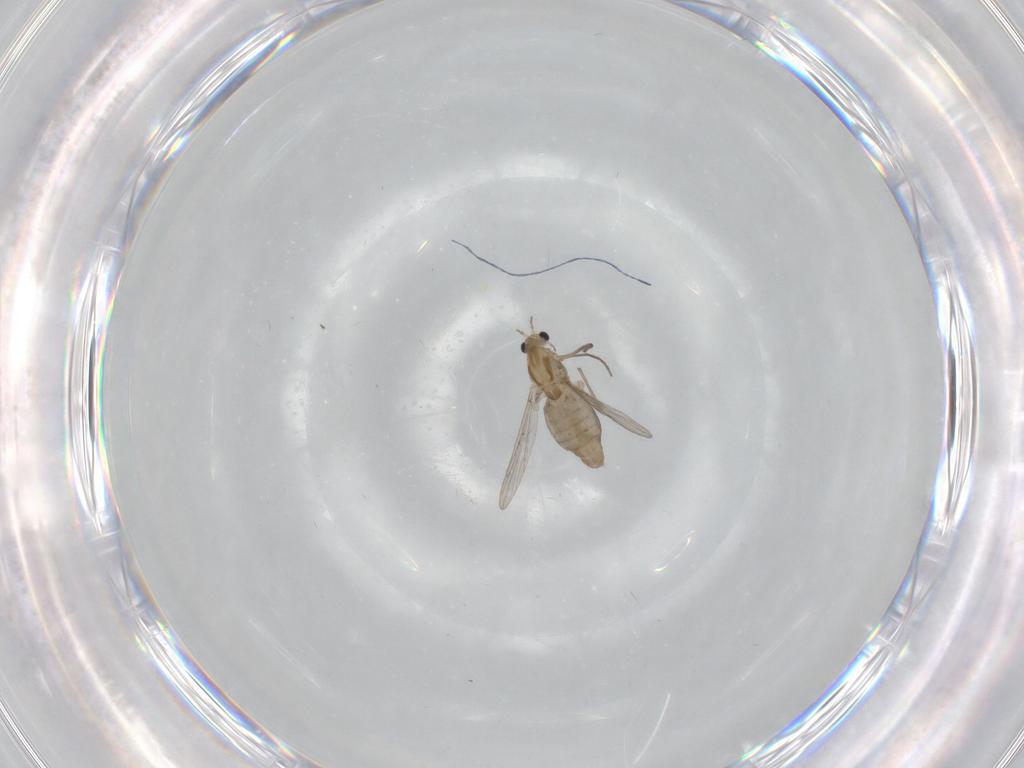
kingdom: Animalia
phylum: Arthropoda
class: Insecta
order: Diptera
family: Chironomidae
